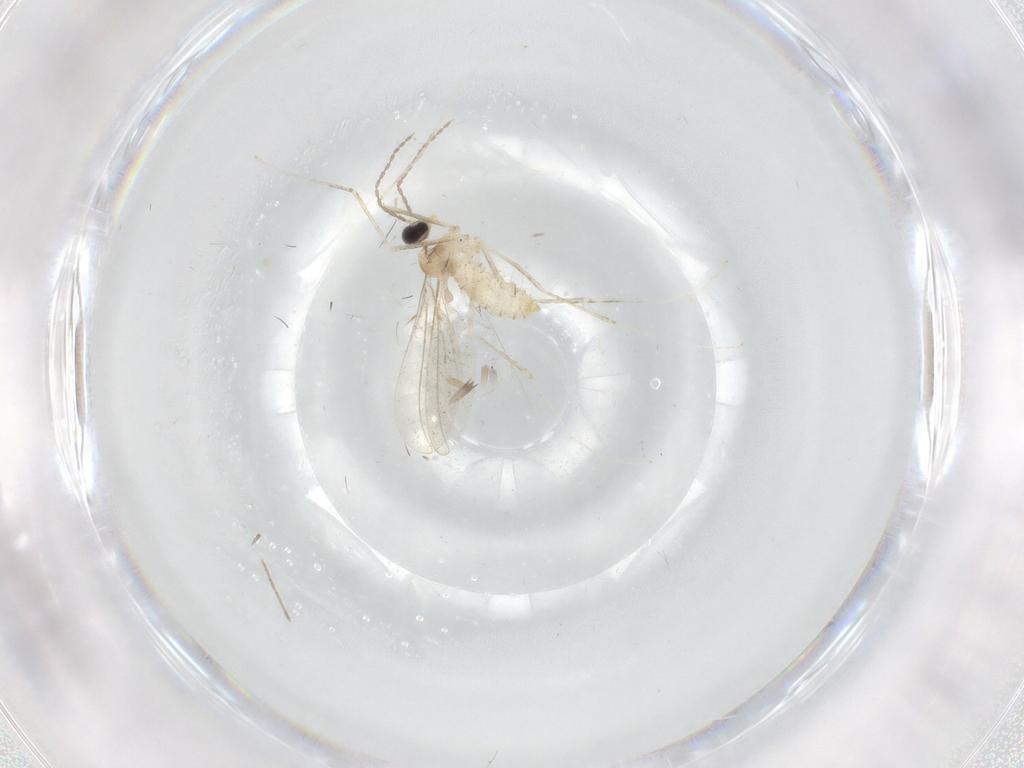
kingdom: Animalia
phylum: Arthropoda
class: Insecta
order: Diptera
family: Cecidomyiidae
